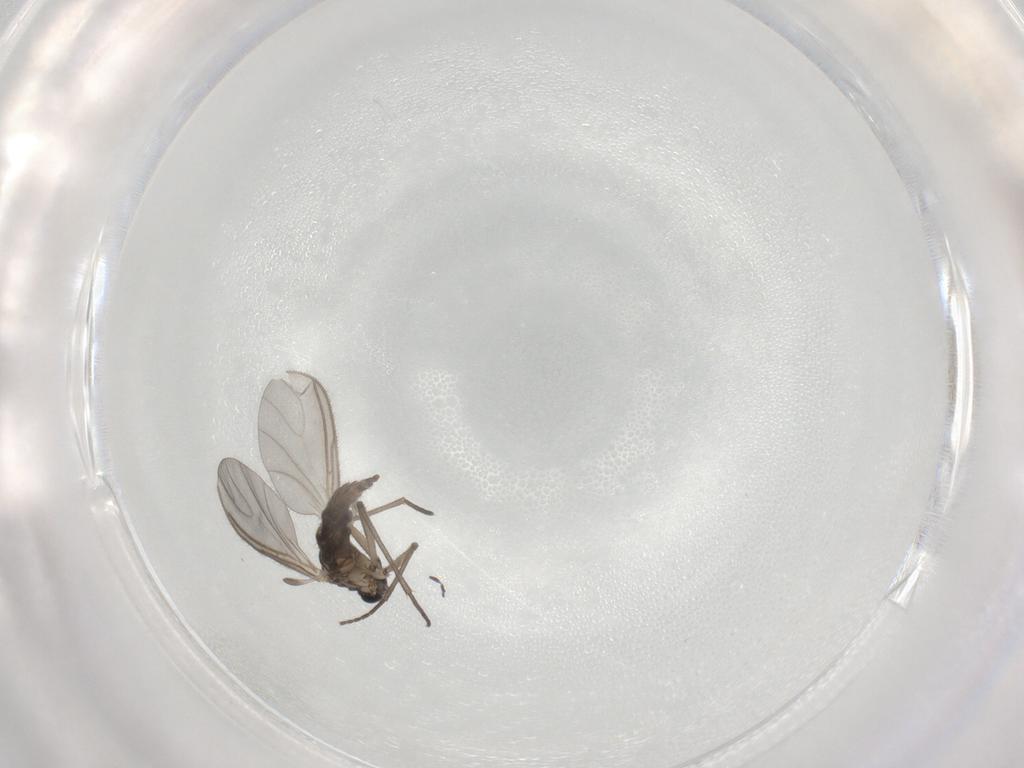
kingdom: Animalia
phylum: Arthropoda
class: Insecta
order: Diptera
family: Sciaridae
